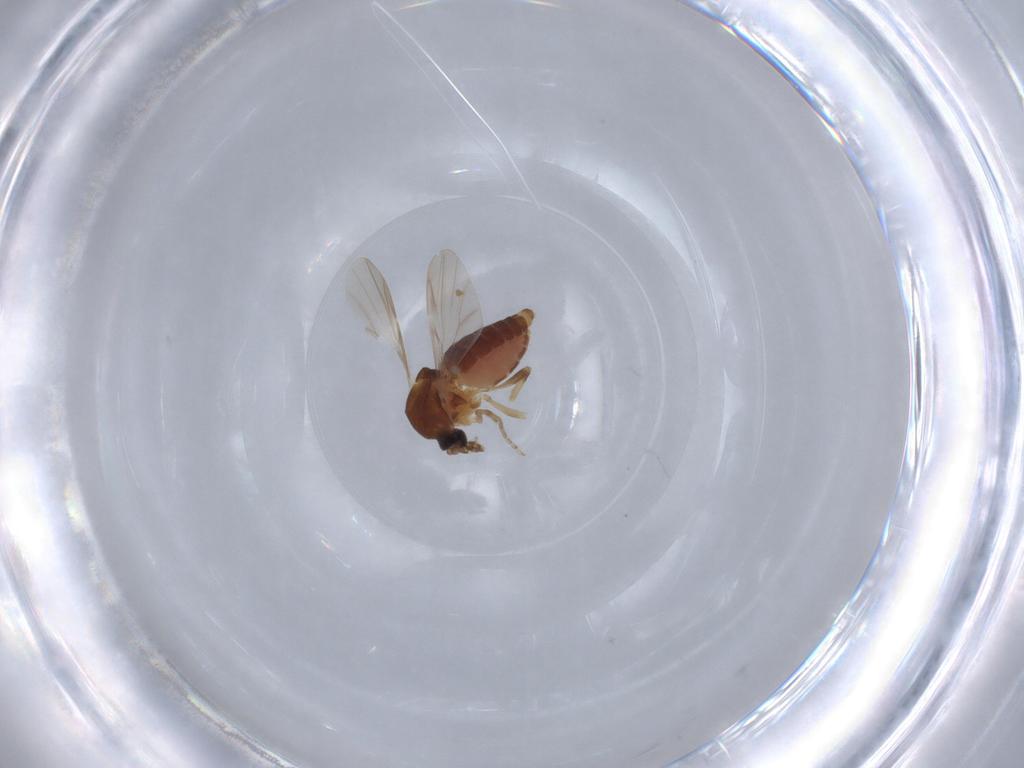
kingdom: Animalia
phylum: Arthropoda
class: Insecta
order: Diptera
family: Ceratopogonidae
